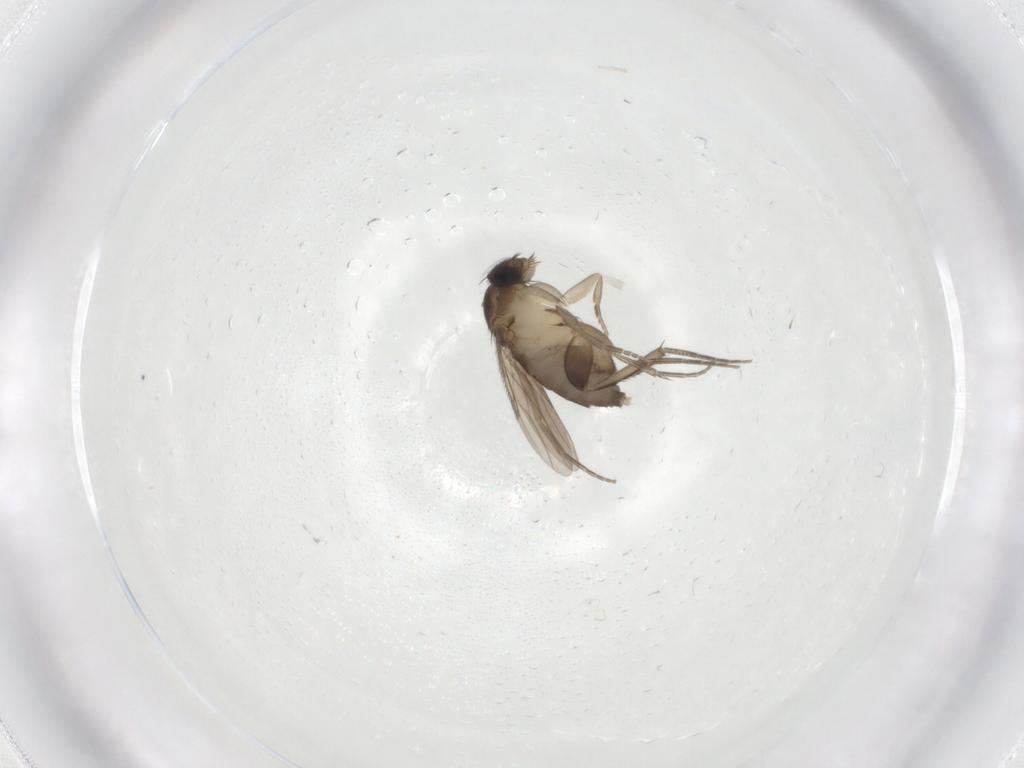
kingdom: Animalia
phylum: Arthropoda
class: Insecta
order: Diptera
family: Phoridae
